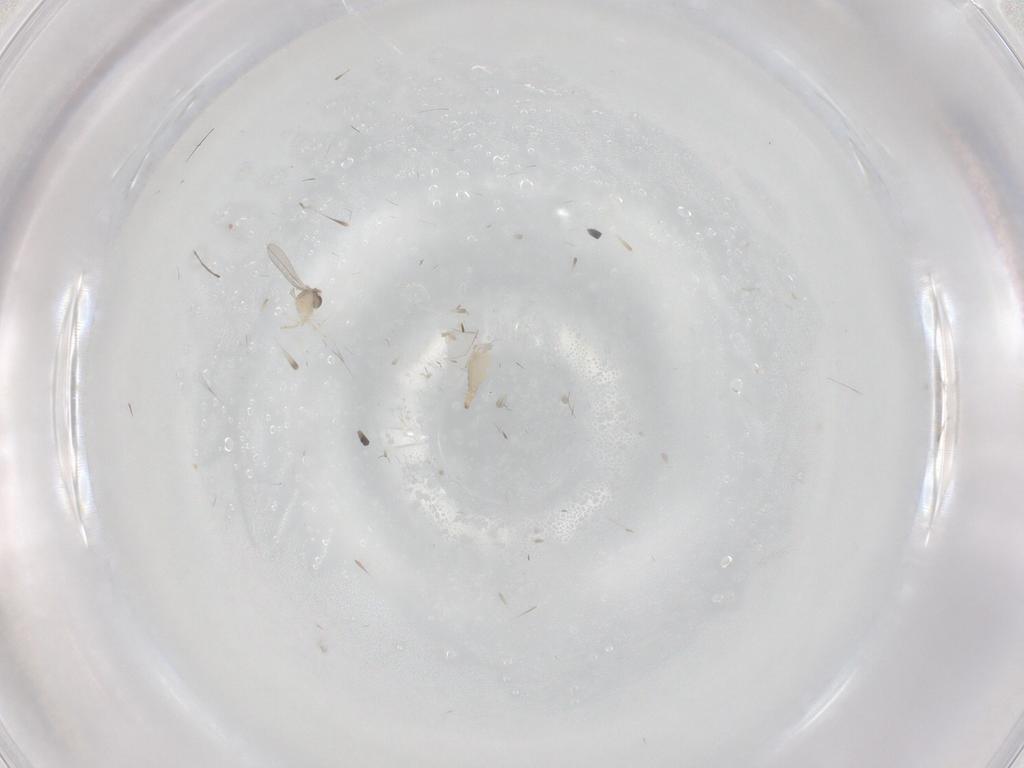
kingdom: Animalia
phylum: Arthropoda
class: Insecta
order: Diptera
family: Cecidomyiidae
